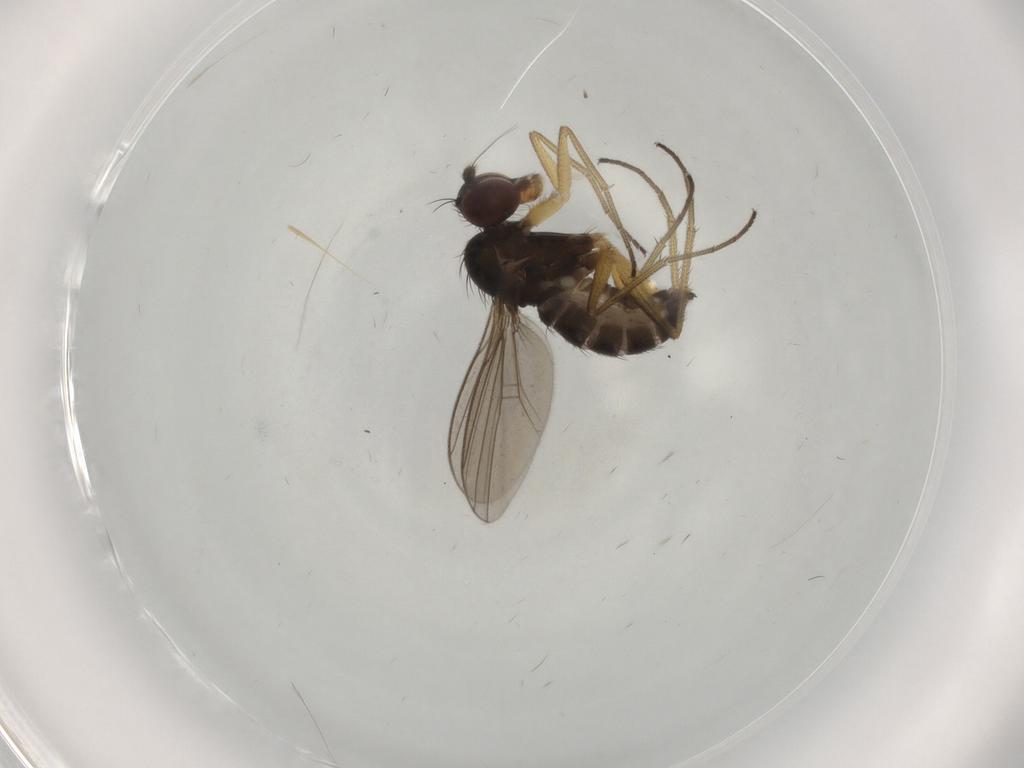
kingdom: Animalia
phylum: Arthropoda
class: Insecta
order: Diptera
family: Dolichopodidae
